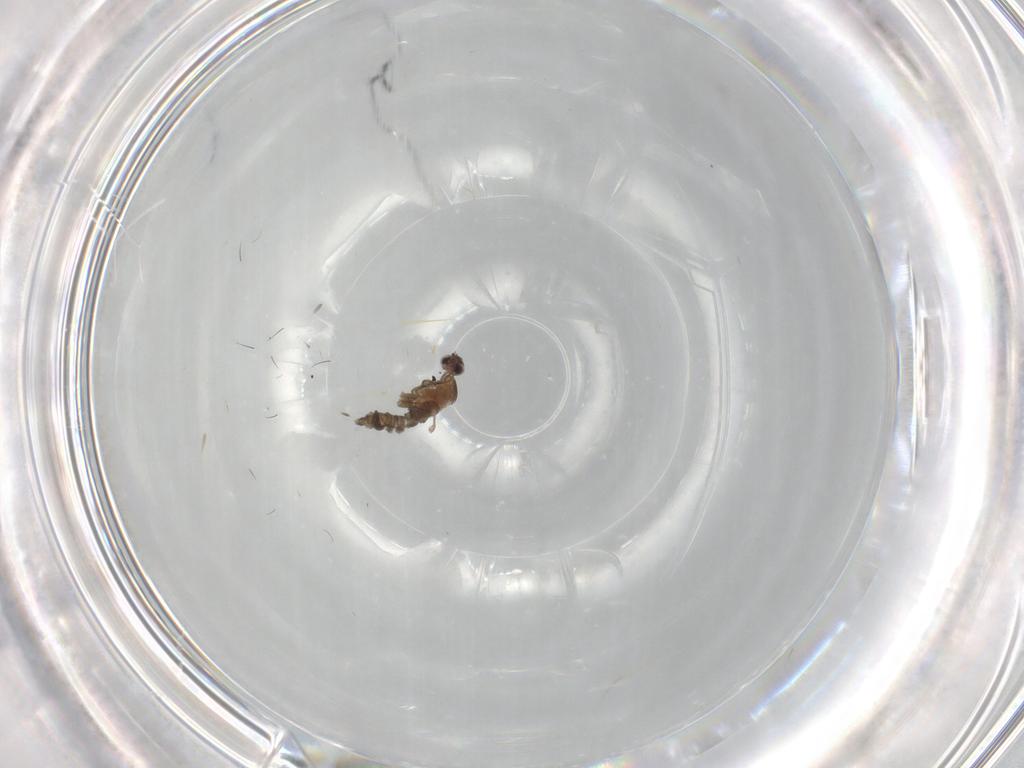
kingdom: Animalia
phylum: Arthropoda
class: Insecta
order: Diptera
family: Cecidomyiidae
